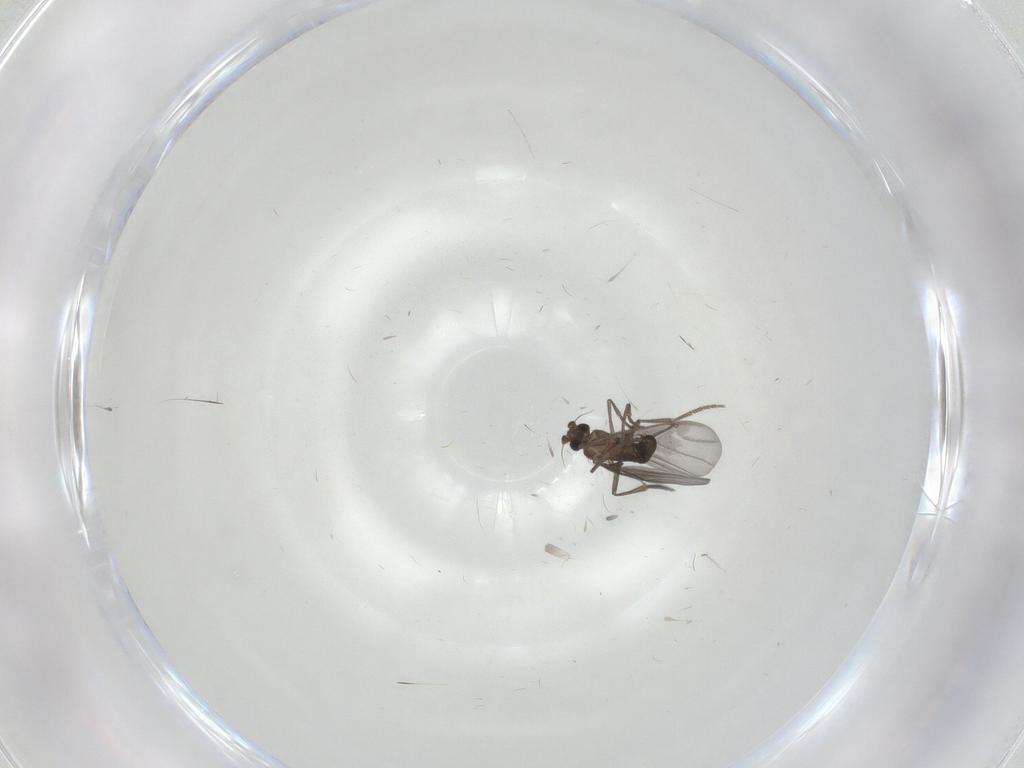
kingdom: Animalia
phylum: Arthropoda
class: Insecta
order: Diptera
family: Phoridae
